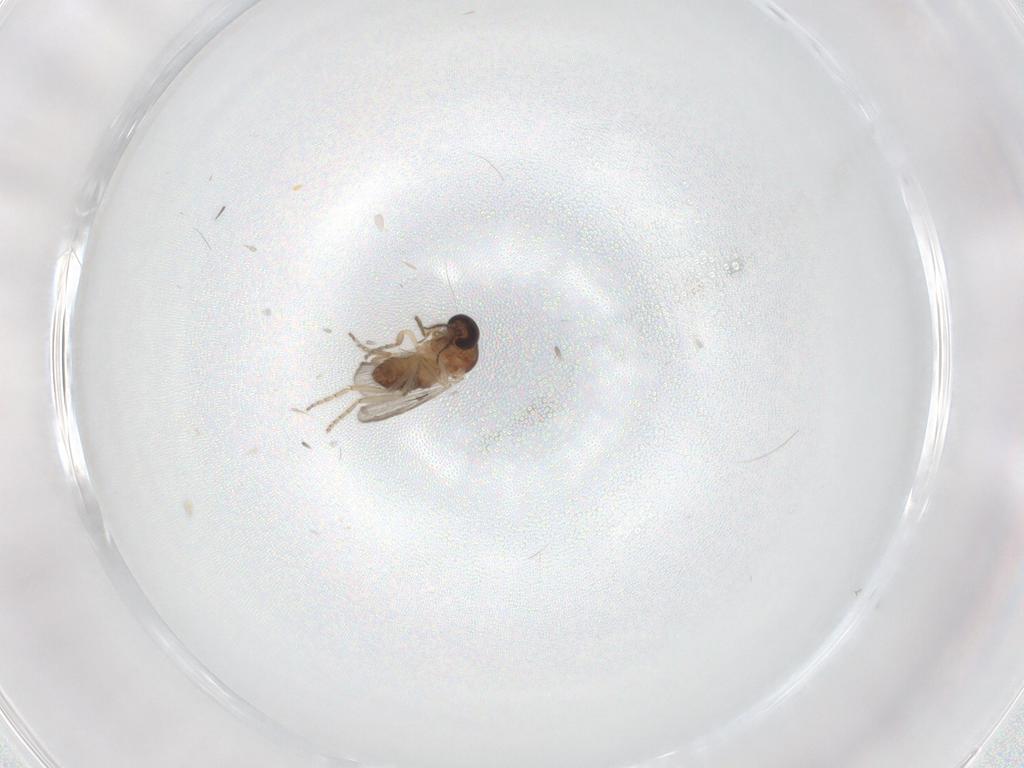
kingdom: Animalia
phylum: Arthropoda
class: Insecta
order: Diptera
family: Ceratopogonidae
